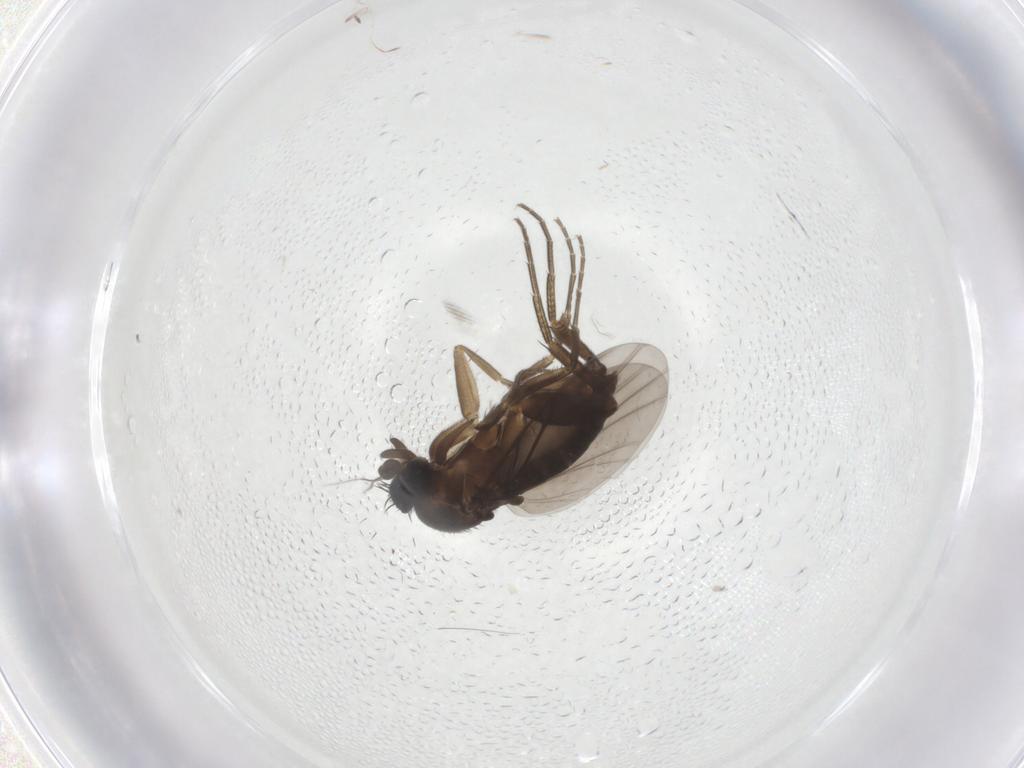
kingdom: Animalia
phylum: Arthropoda
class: Insecta
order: Diptera
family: Phoridae
